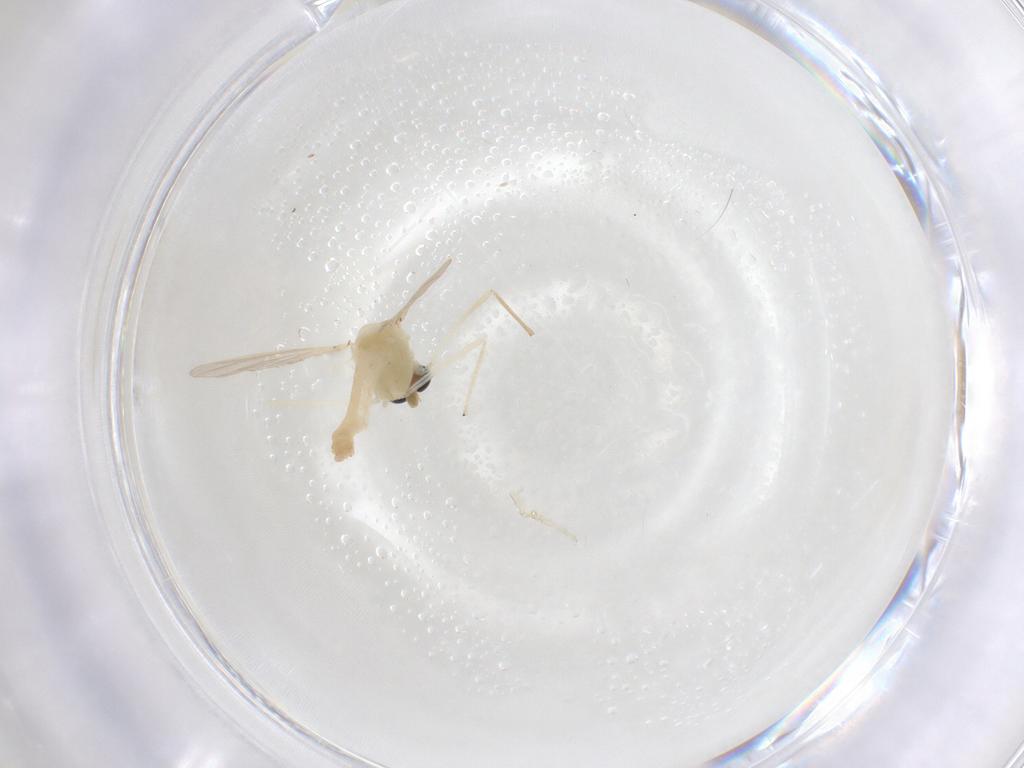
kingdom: Animalia
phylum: Arthropoda
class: Insecta
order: Diptera
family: Chironomidae
